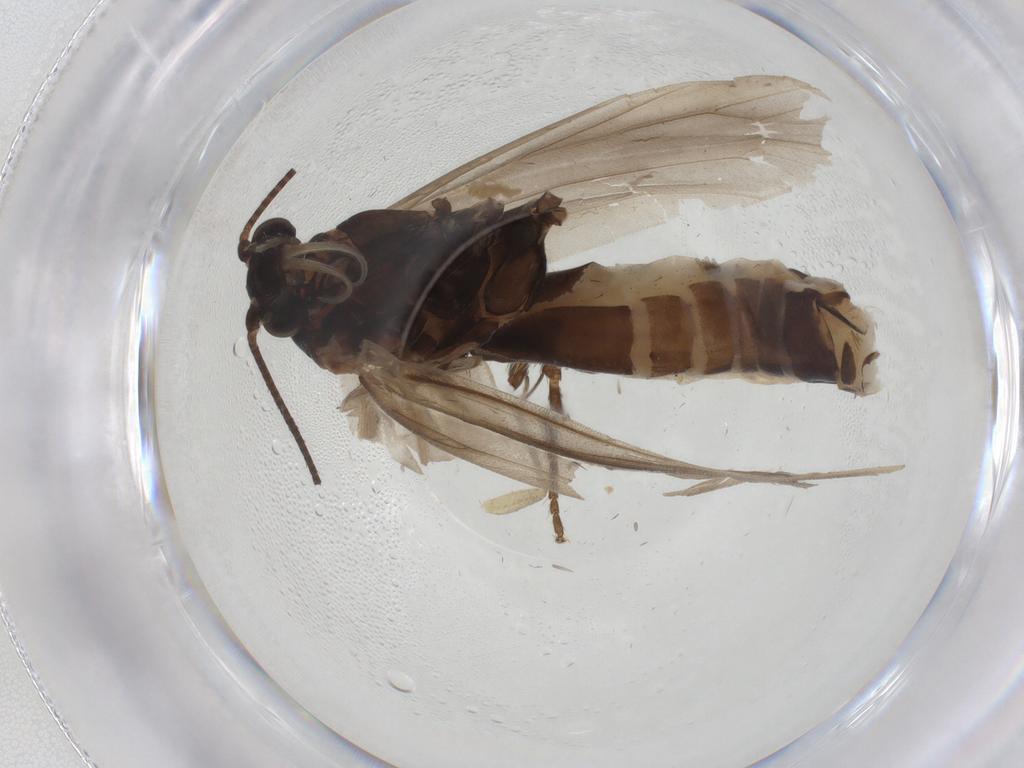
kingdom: Animalia
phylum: Arthropoda
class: Insecta
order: Lepidoptera
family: Prodoxidae
